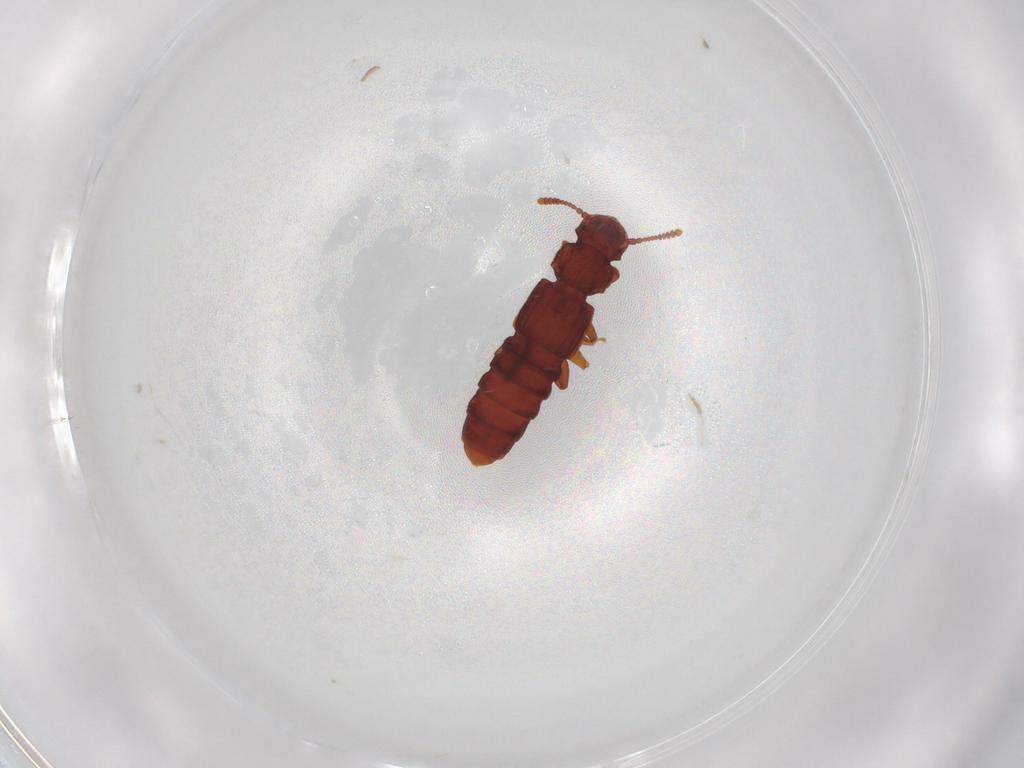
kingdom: Animalia
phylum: Arthropoda
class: Insecta
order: Coleoptera
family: Staphylinidae
